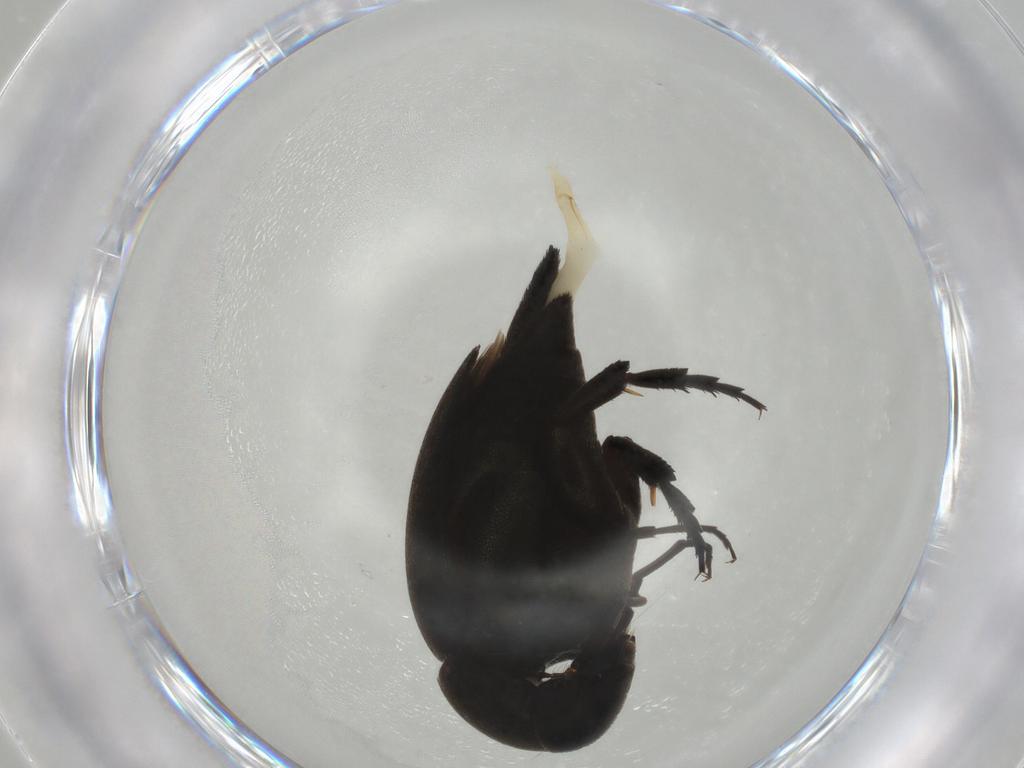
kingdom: Animalia
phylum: Arthropoda
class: Insecta
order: Coleoptera
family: Mordellidae
